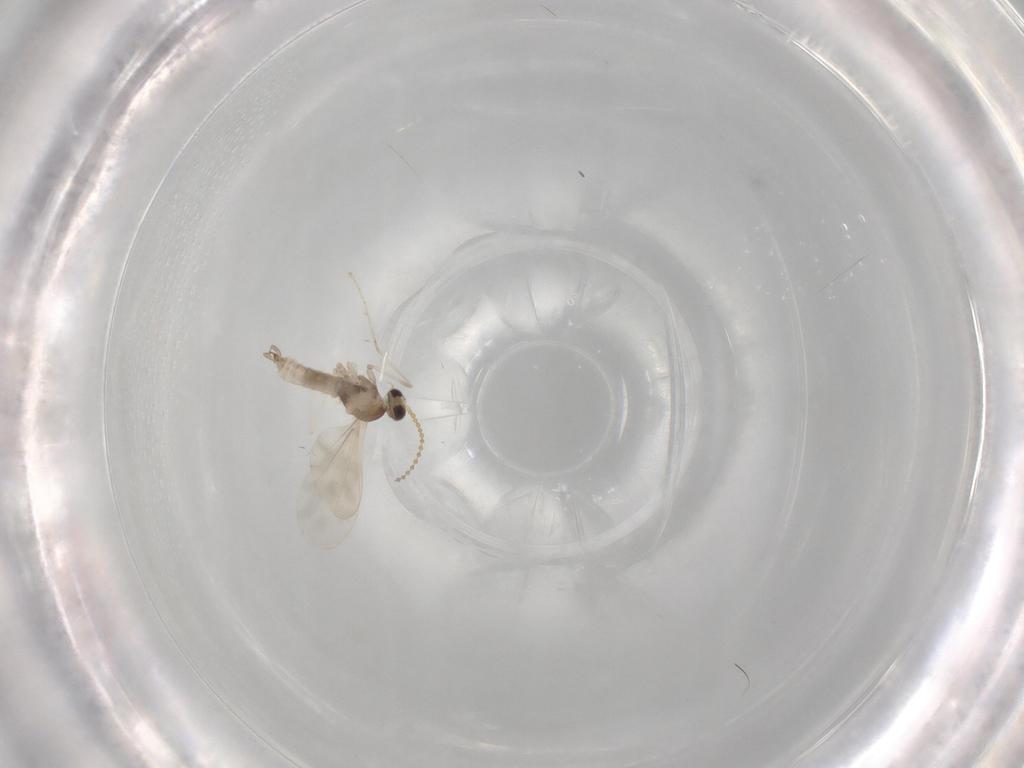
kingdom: Animalia
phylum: Arthropoda
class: Insecta
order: Diptera
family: Cecidomyiidae
